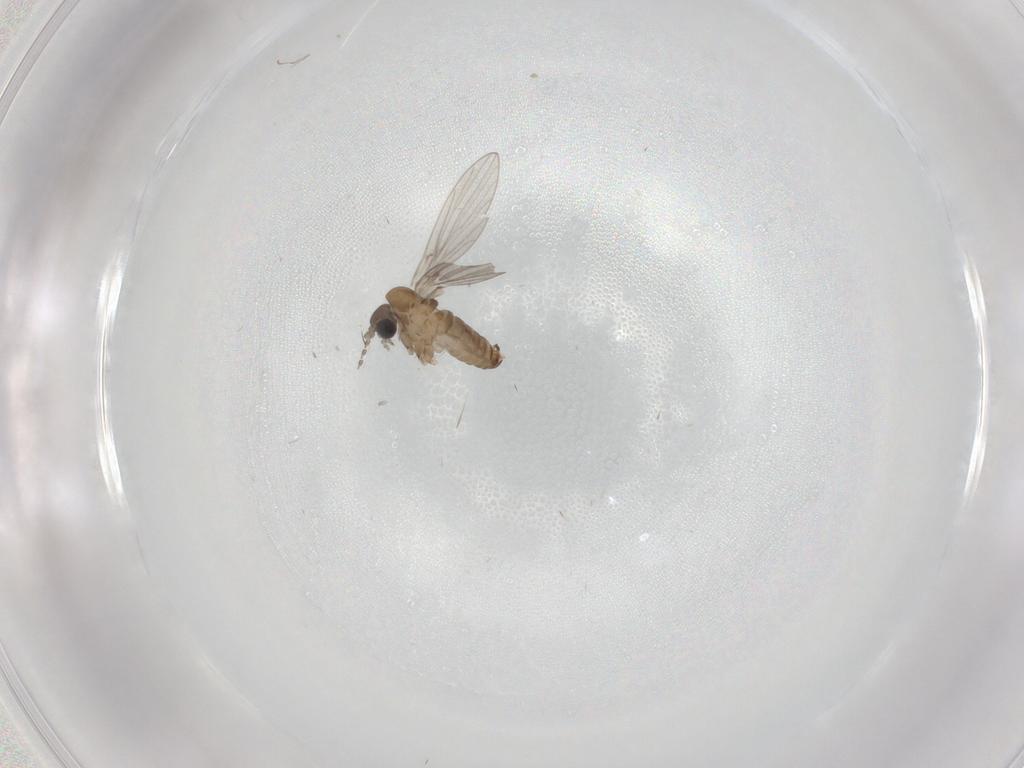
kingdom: Animalia
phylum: Arthropoda
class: Insecta
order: Diptera
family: Psychodidae
